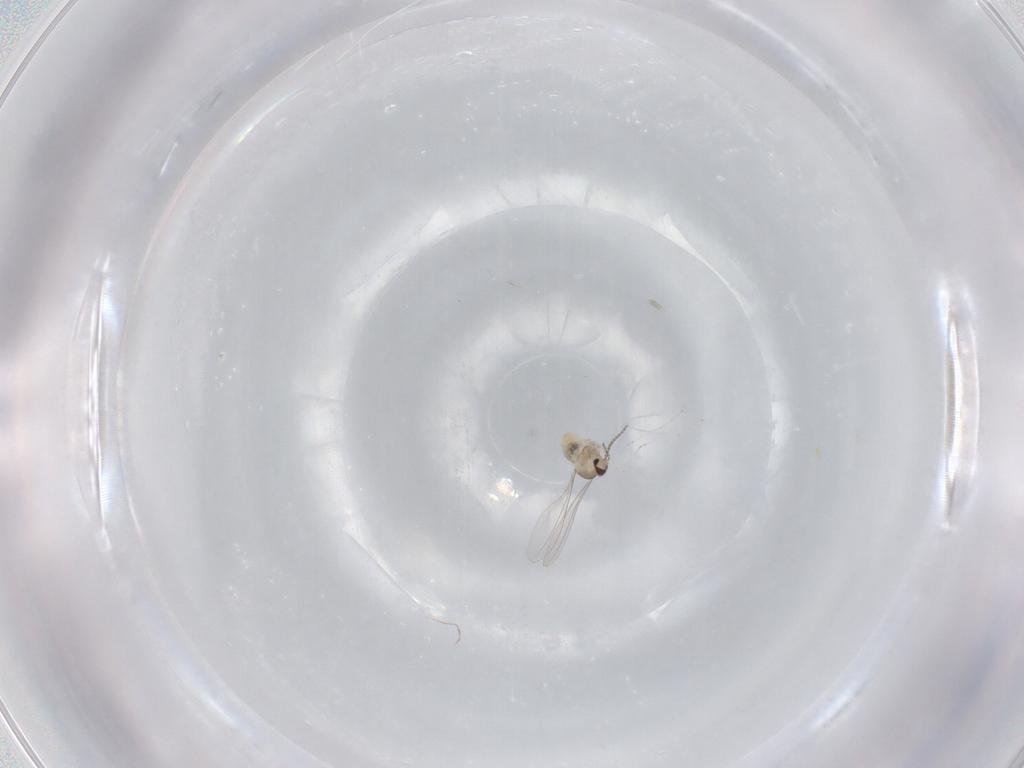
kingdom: Animalia
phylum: Arthropoda
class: Insecta
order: Diptera
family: Cecidomyiidae
